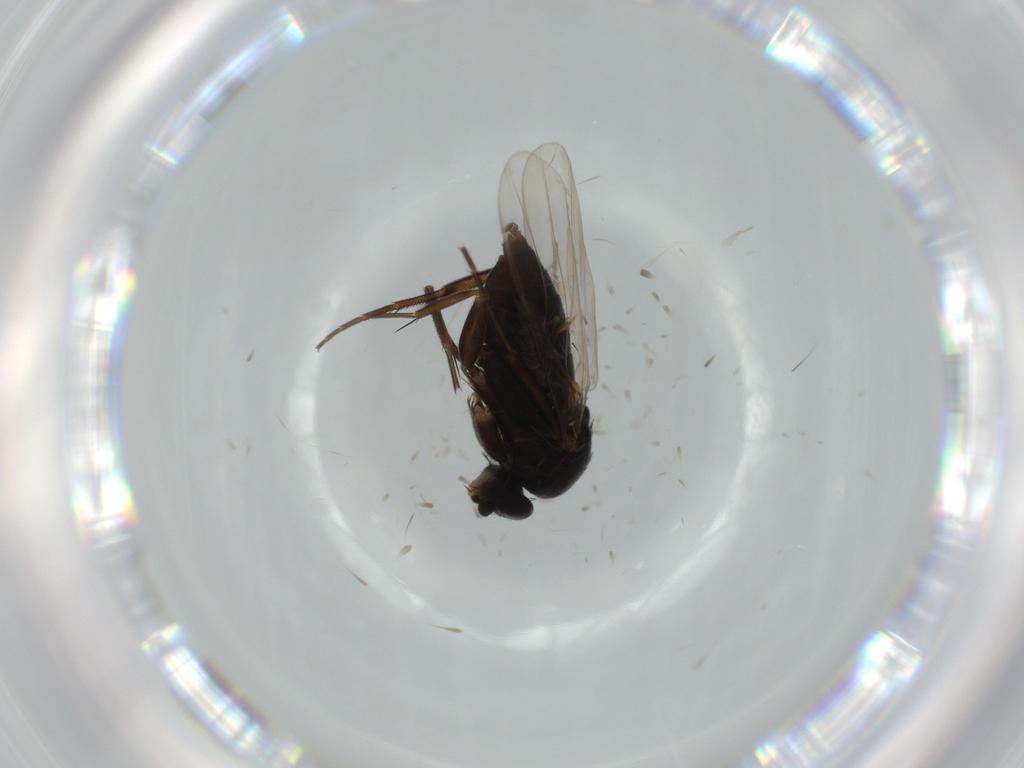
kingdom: Animalia
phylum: Arthropoda
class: Insecta
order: Diptera
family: Phoridae
